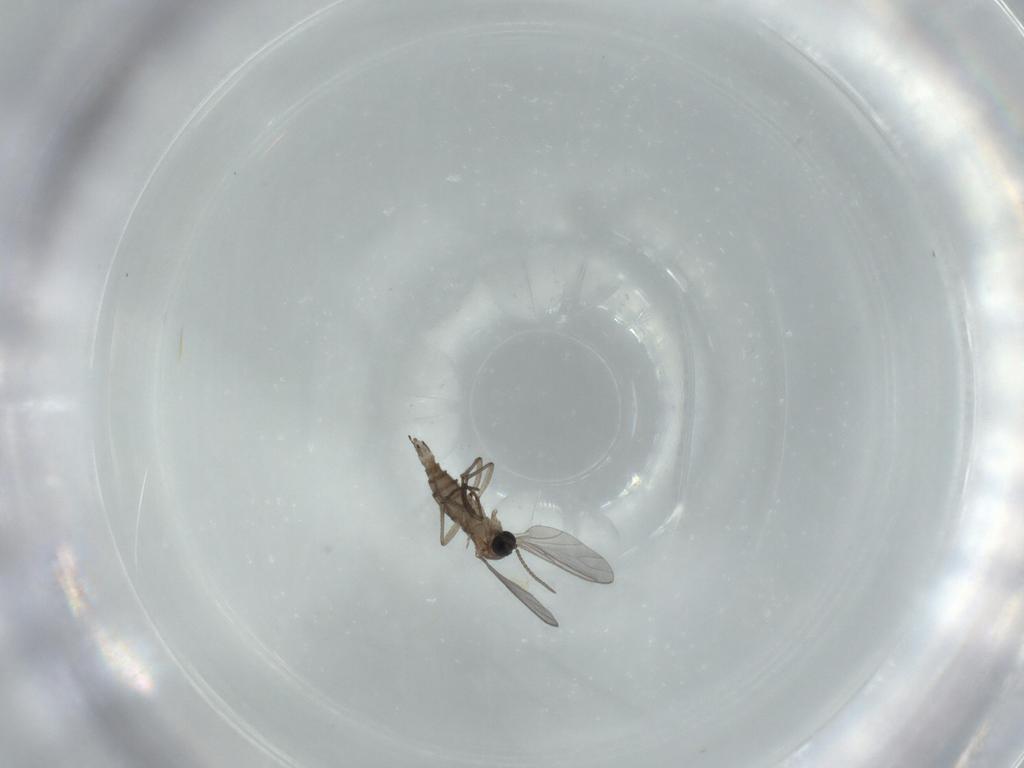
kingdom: Animalia
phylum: Arthropoda
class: Insecta
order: Diptera
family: Sciaridae
